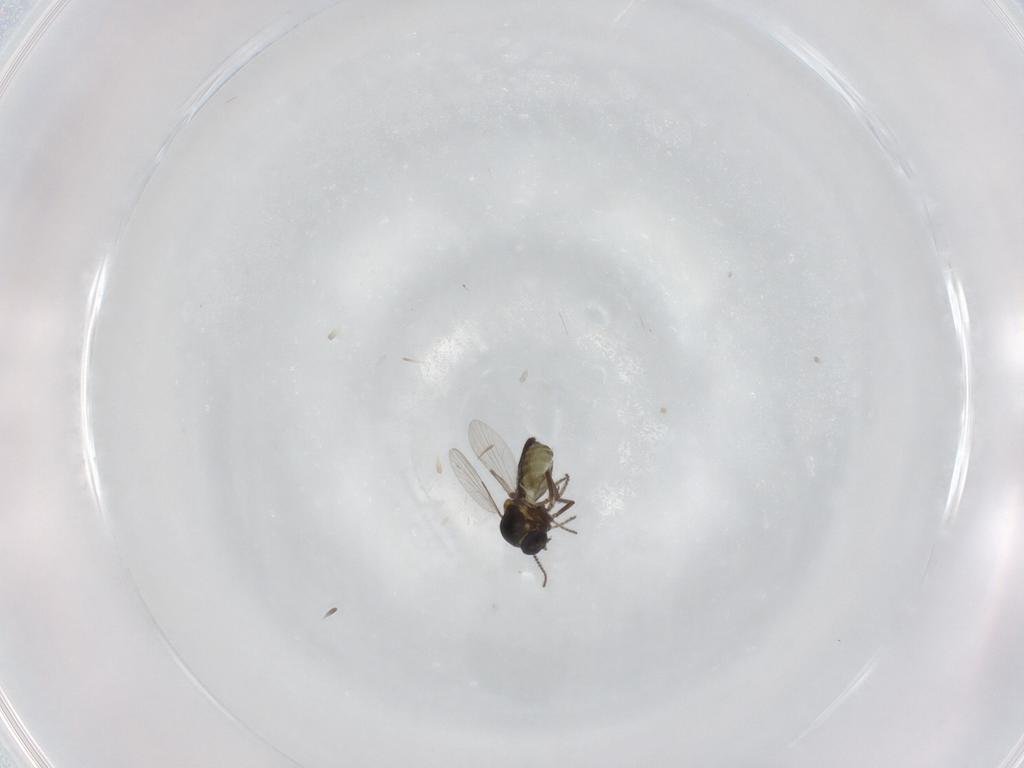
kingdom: Animalia
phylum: Arthropoda
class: Insecta
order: Diptera
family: Ceratopogonidae
